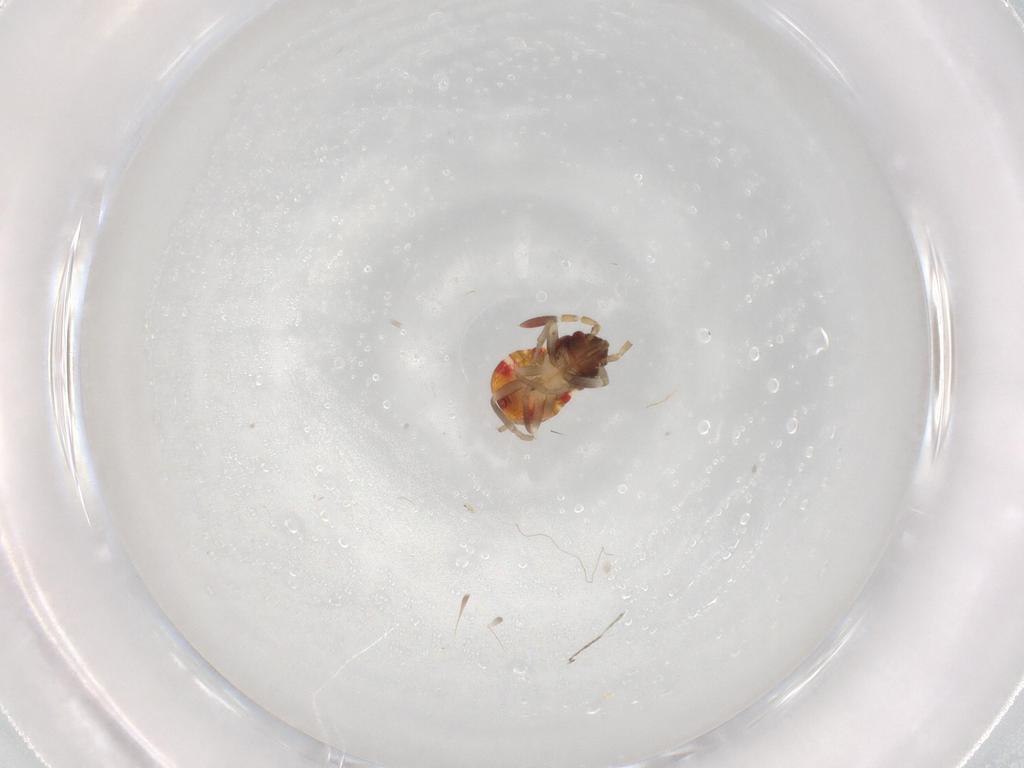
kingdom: Animalia
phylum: Arthropoda
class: Insecta
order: Hemiptera
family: Rhyparochromidae
